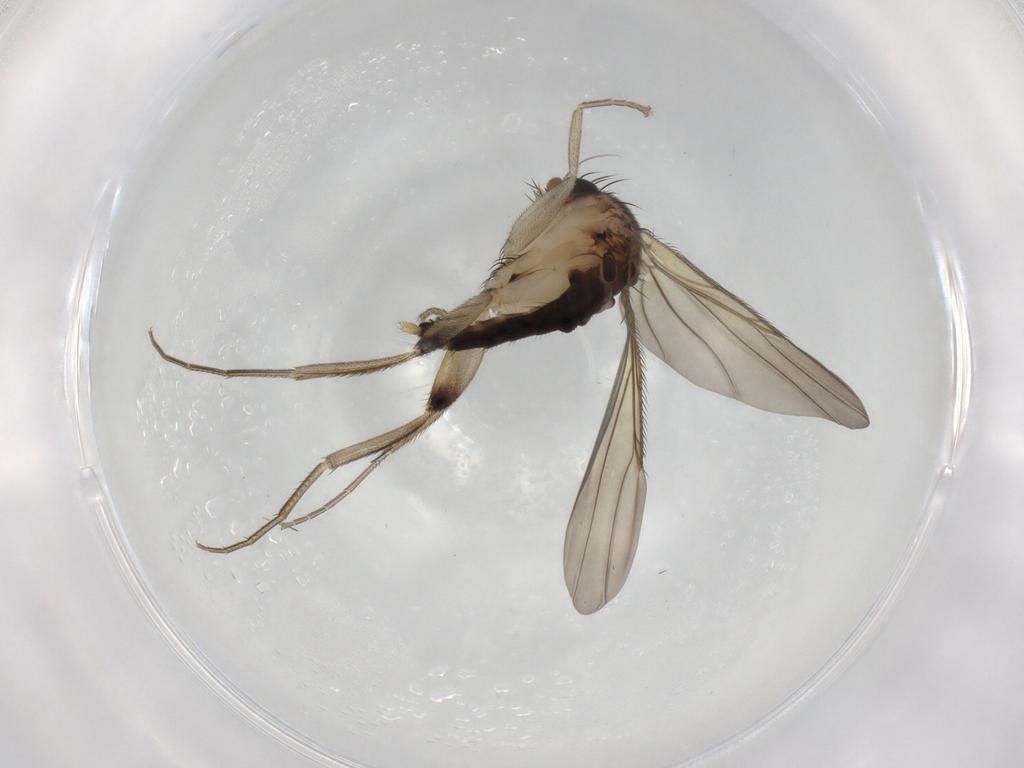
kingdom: Animalia
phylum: Arthropoda
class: Insecta
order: Diptera
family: Phoridae
